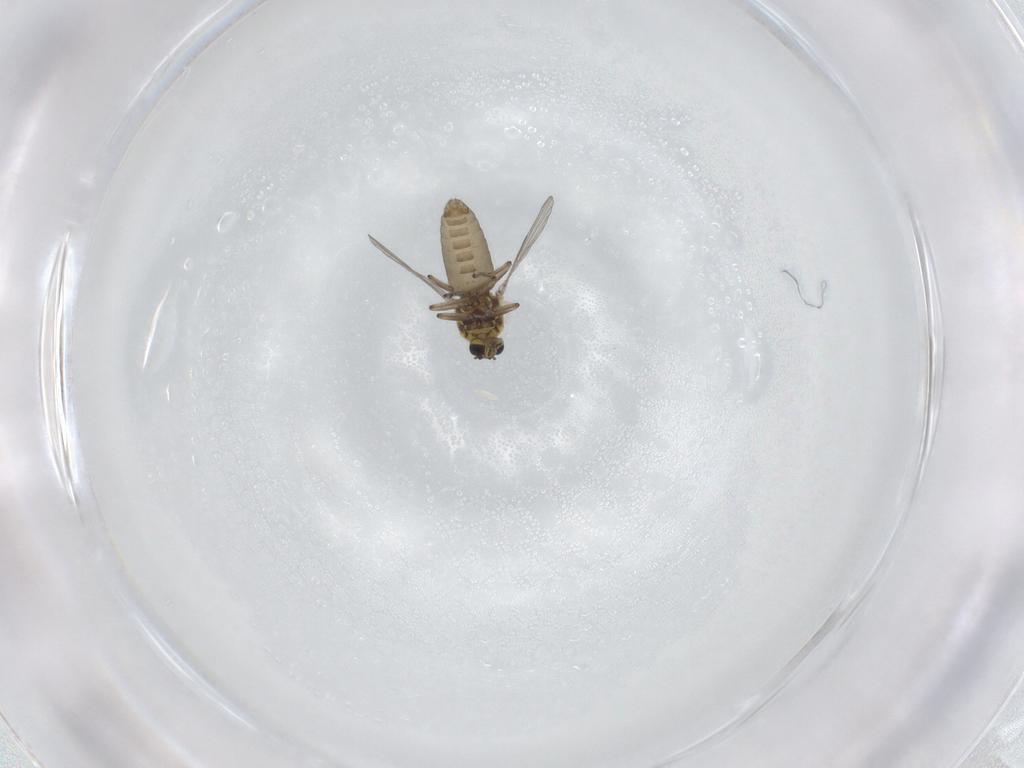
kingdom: Animalia
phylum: Arthropoda
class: Insecta
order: Diptera
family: Ceratopogonidae
